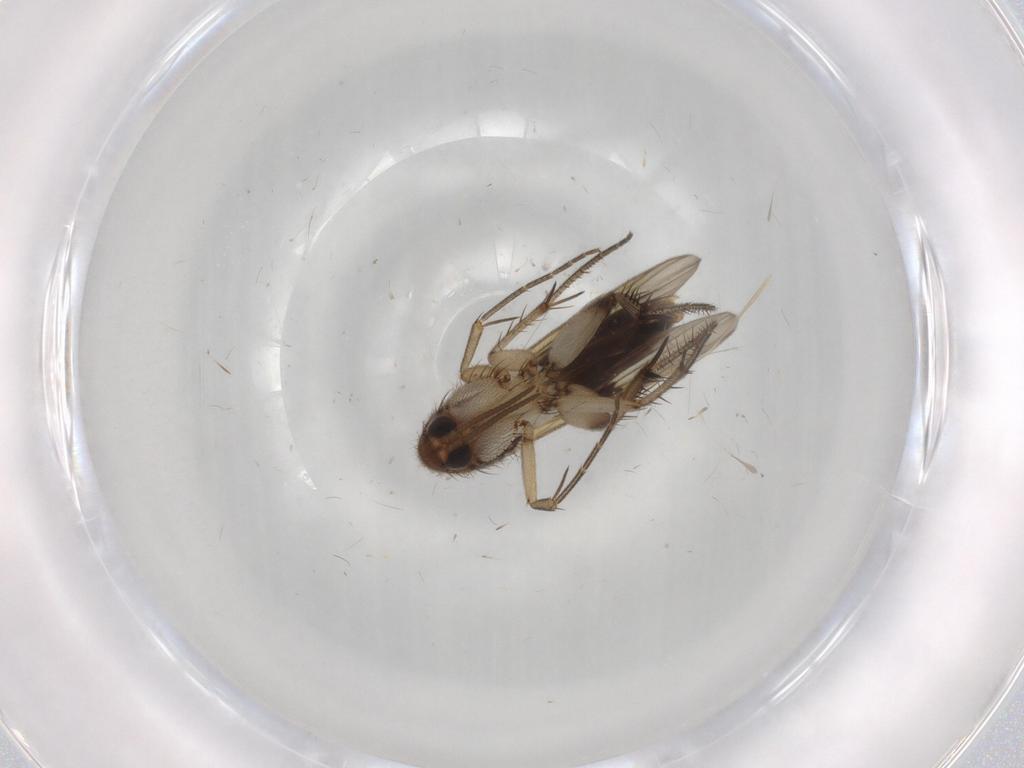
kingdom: Animalia
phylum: Arthropoda
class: Insecta
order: Diptera
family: Mycetophilidae
